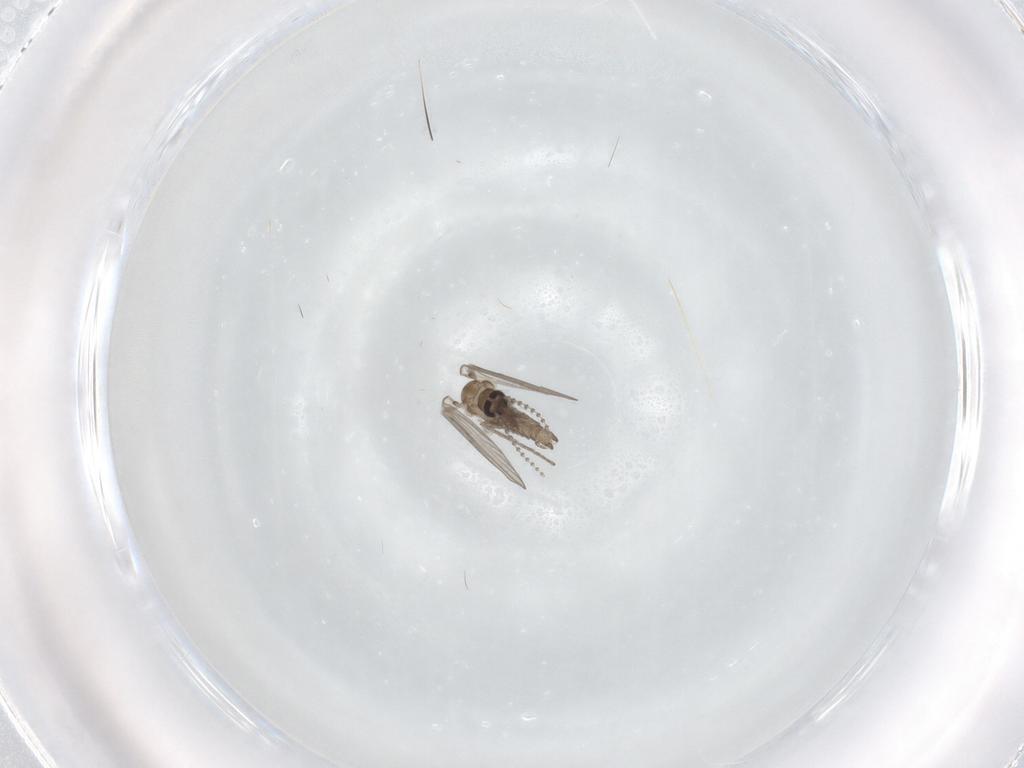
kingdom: Animalia
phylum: Arthropoda
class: Insecta
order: Diptera
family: Psychodidae
